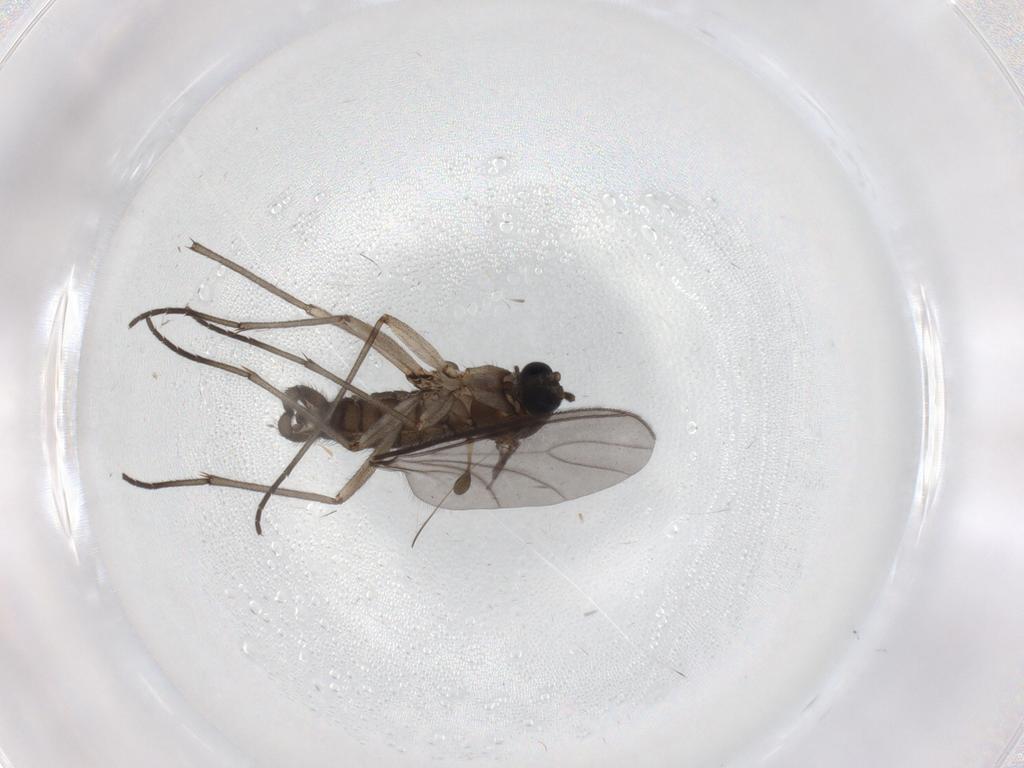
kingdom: Animalia
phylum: Arthropoda
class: Insecta
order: Diptera
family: Sciaridae
